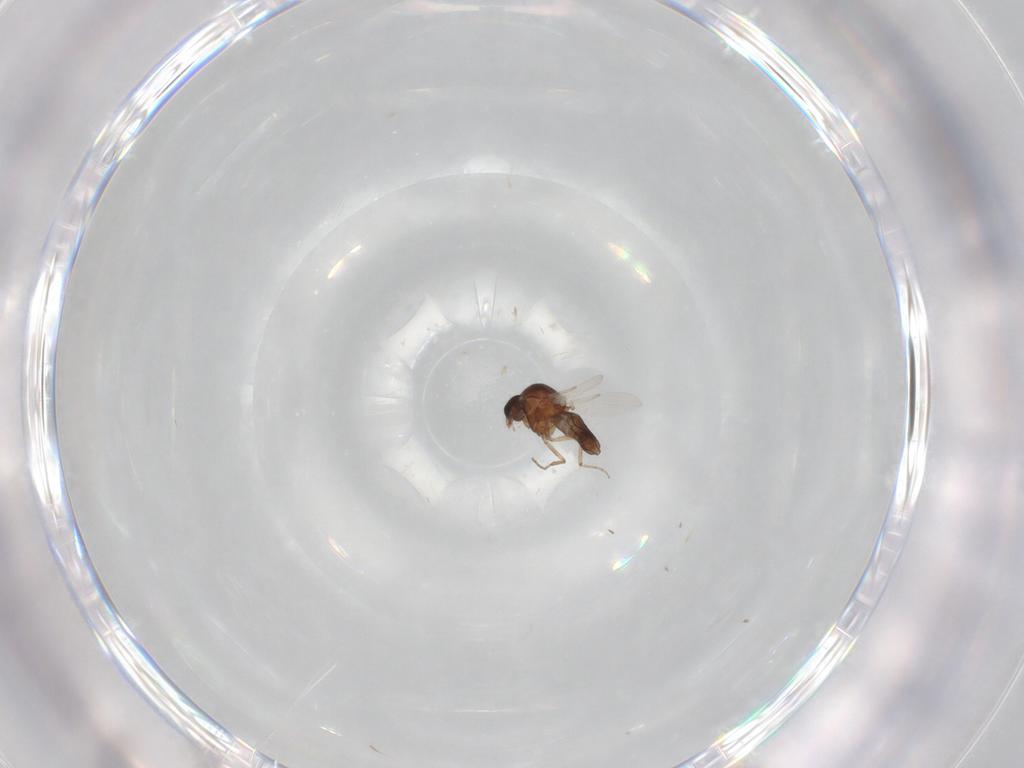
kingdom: Animalia
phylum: Arthropoda
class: Insecta
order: Diptera
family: Ceratopogonidae
